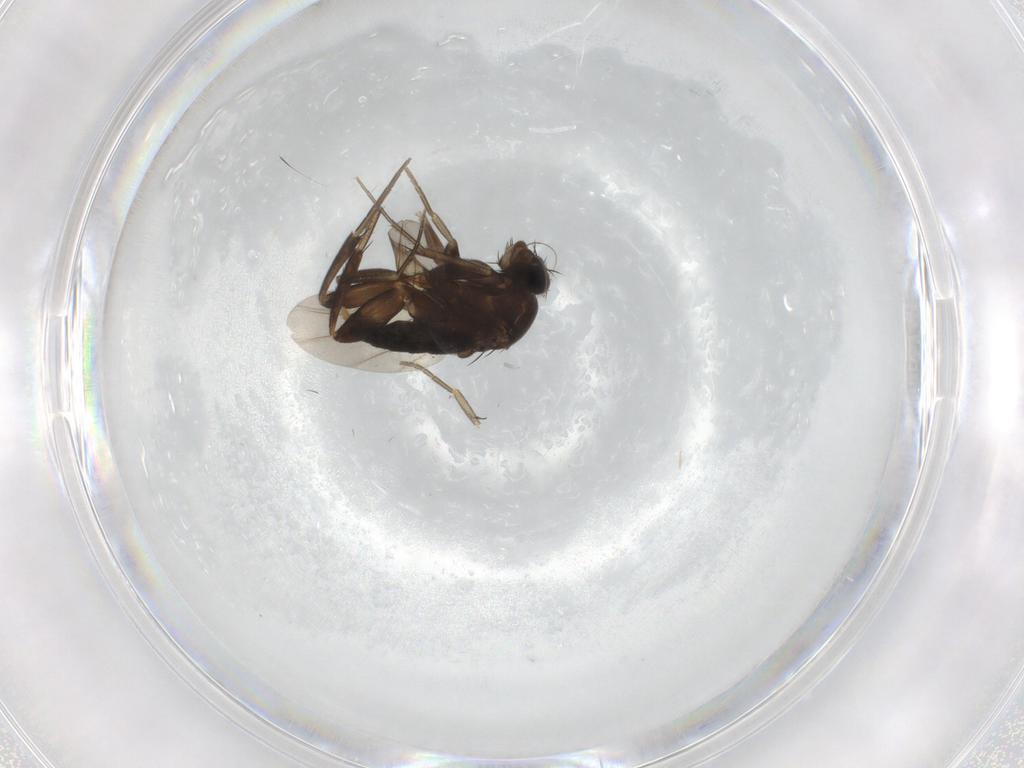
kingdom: Animalia
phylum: Arthropoda
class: Insecta
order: Diptera
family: Phoridae
